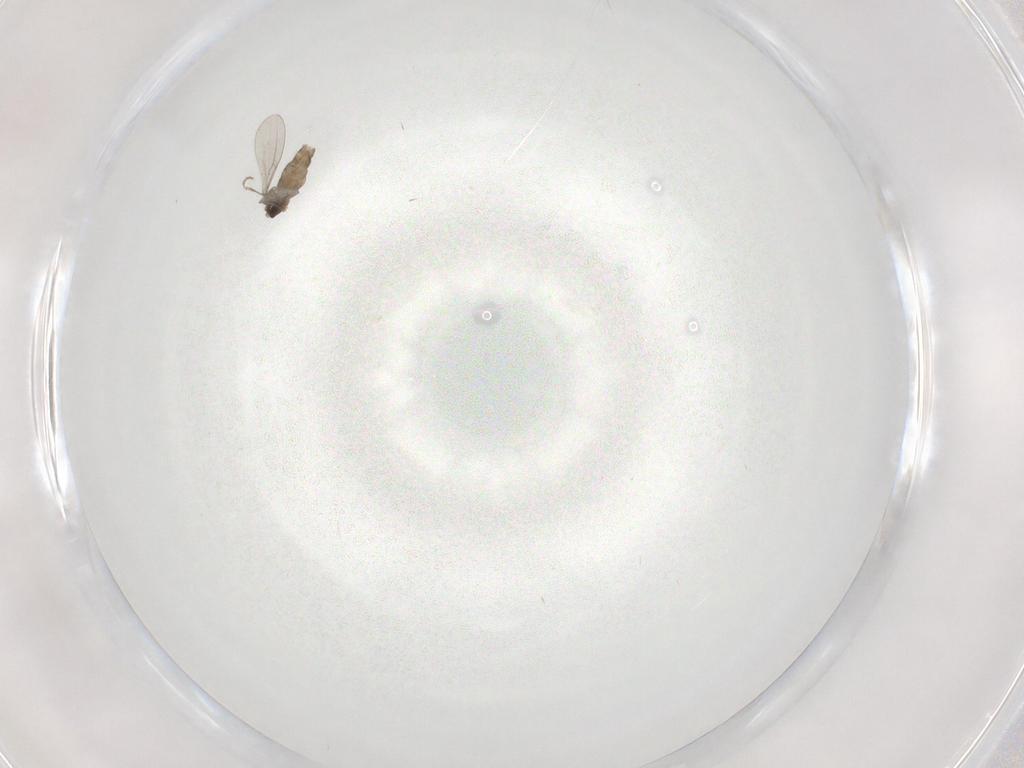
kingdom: Animalia
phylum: Arthropoda
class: Insecta
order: Diptera
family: Cecidomyiidae
